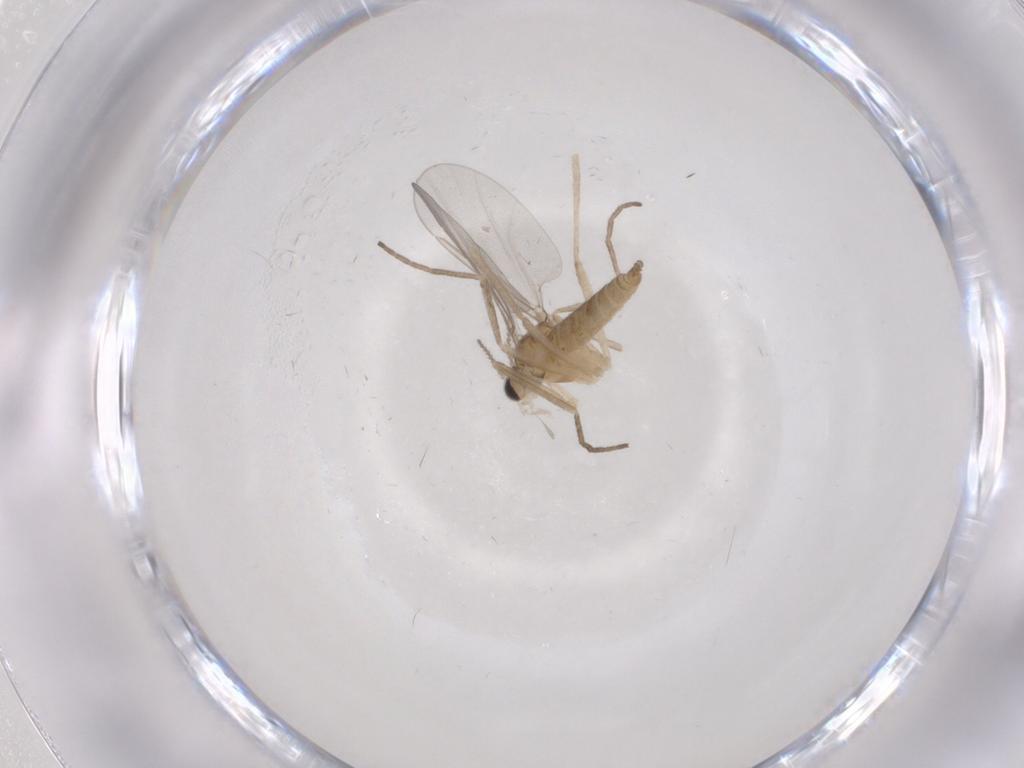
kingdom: Animalia
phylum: Arthropoda
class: Insecta
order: Diptera
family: Cecidomyiidae
